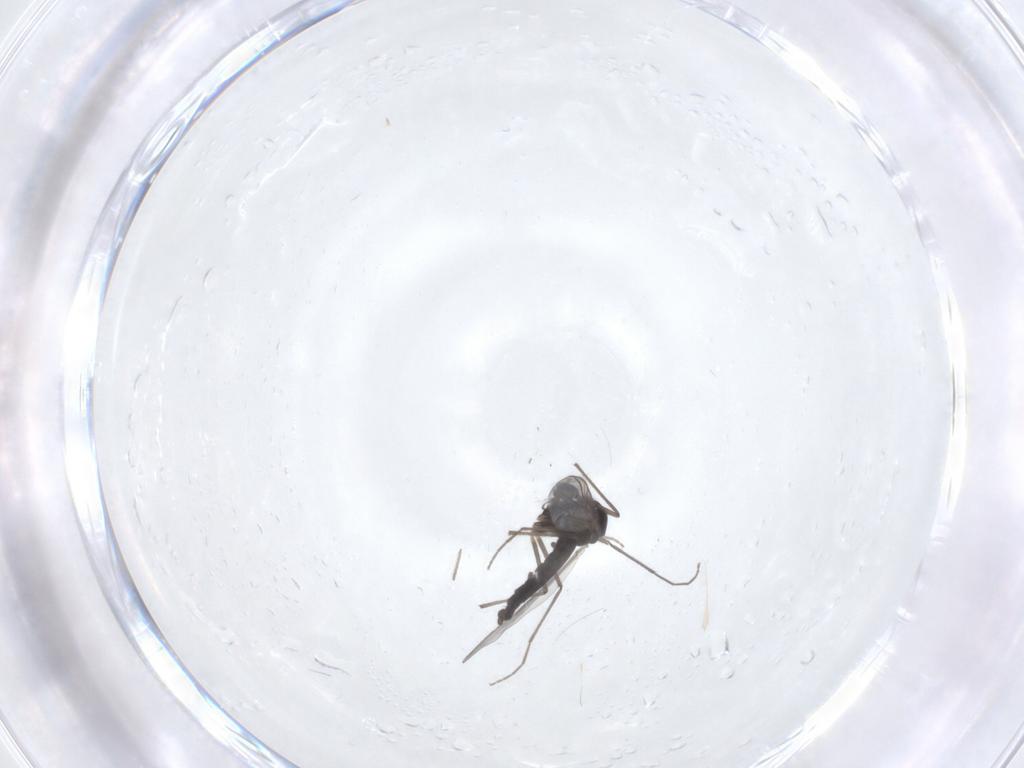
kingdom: Animalia
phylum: Arthropoda
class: Insecta
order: Diptera
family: Chironomidae
